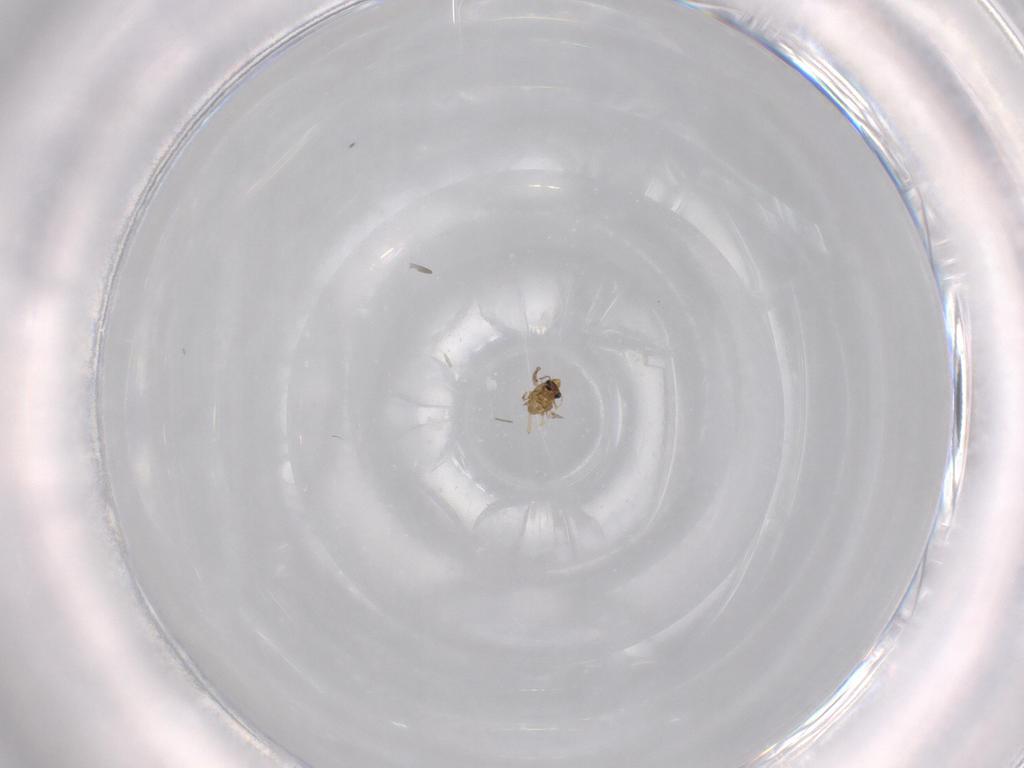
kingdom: Animalia
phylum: Arthropoda
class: Insecta
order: Diptera
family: Chironomidae
